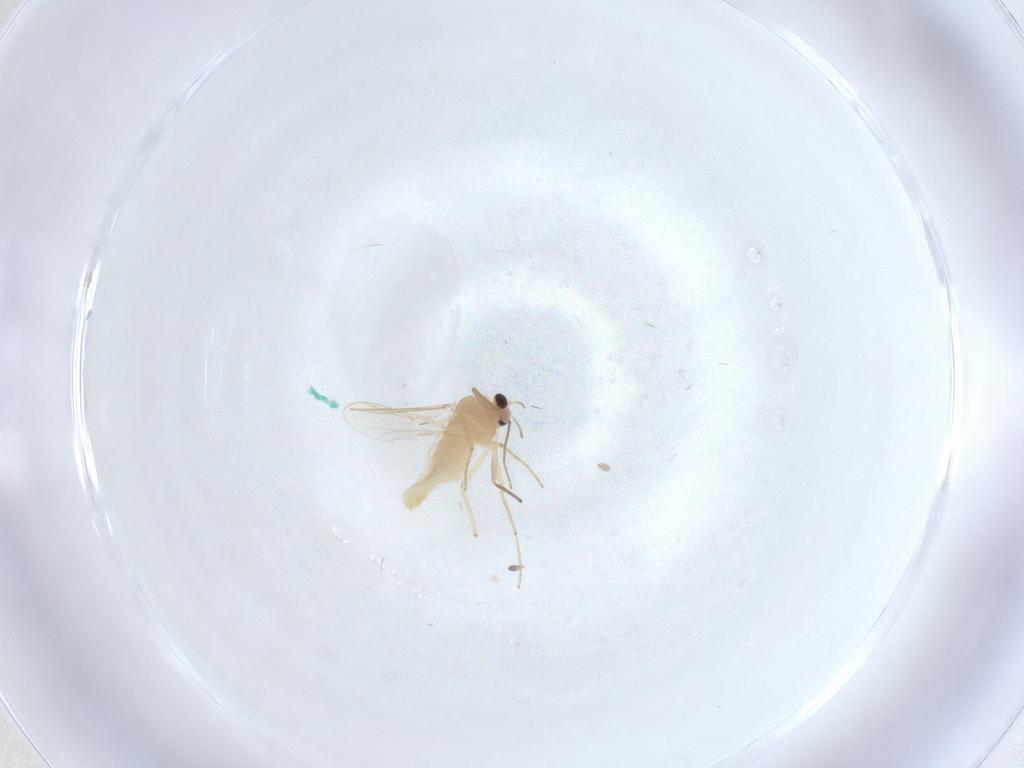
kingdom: Animalia
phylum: Arthropoda
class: Insecta
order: Diptera
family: Chironomidae
